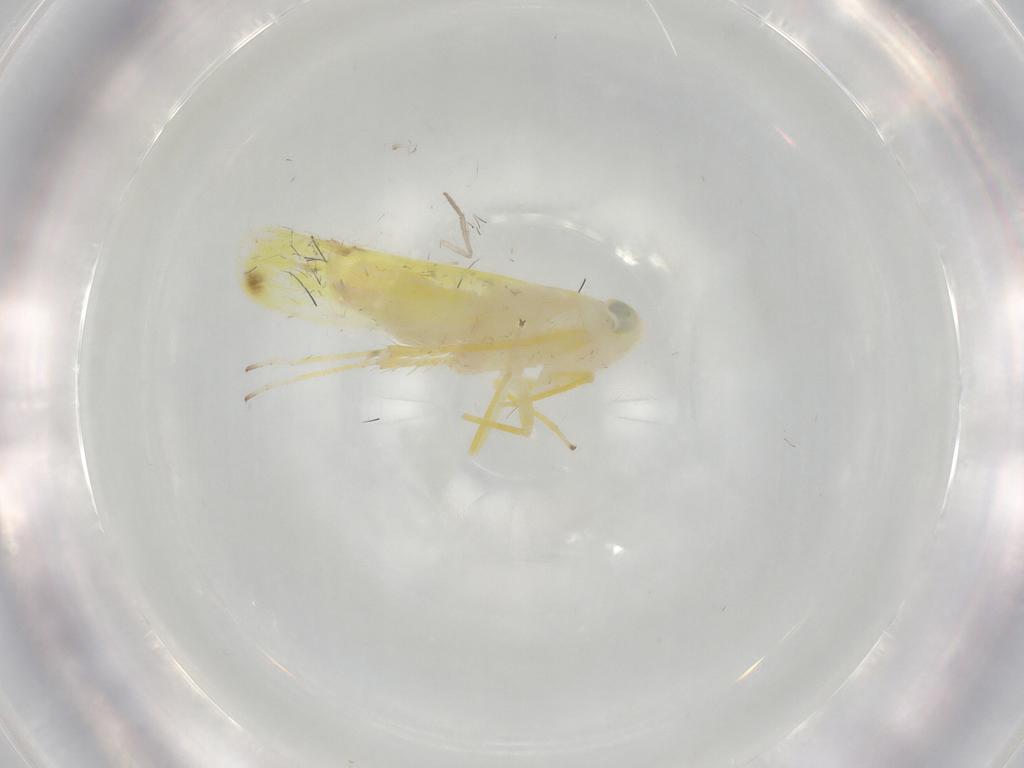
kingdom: Animalia
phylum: Arthropoda
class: Insecta
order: Hemiptera
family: Cicadellidae
